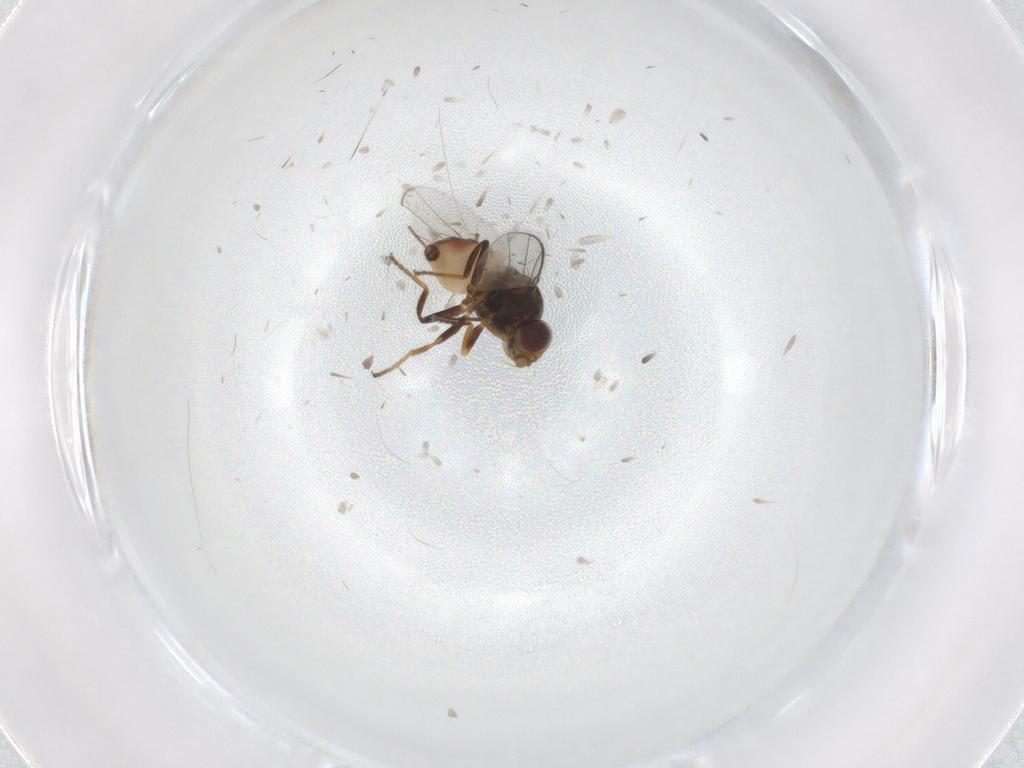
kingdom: Animalia
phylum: Arthropoda
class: Insecta
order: Diptera
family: Chloropidae
